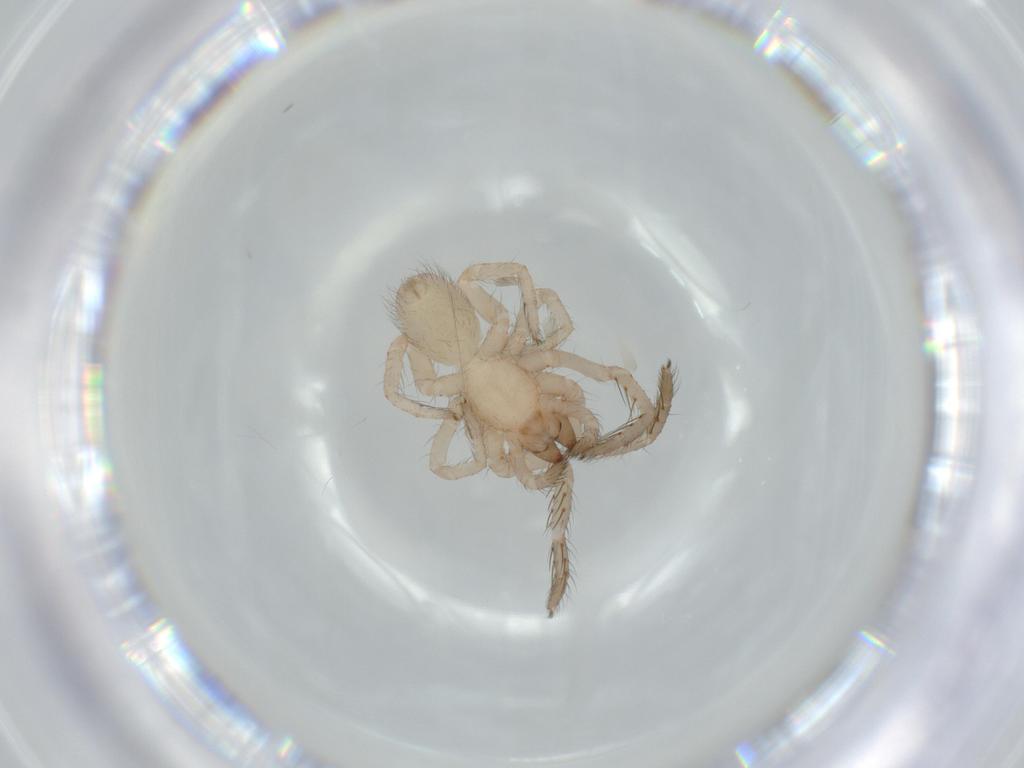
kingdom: Animalia
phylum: Arthropoda
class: Arachnida
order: Araneae
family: Segestriidae
